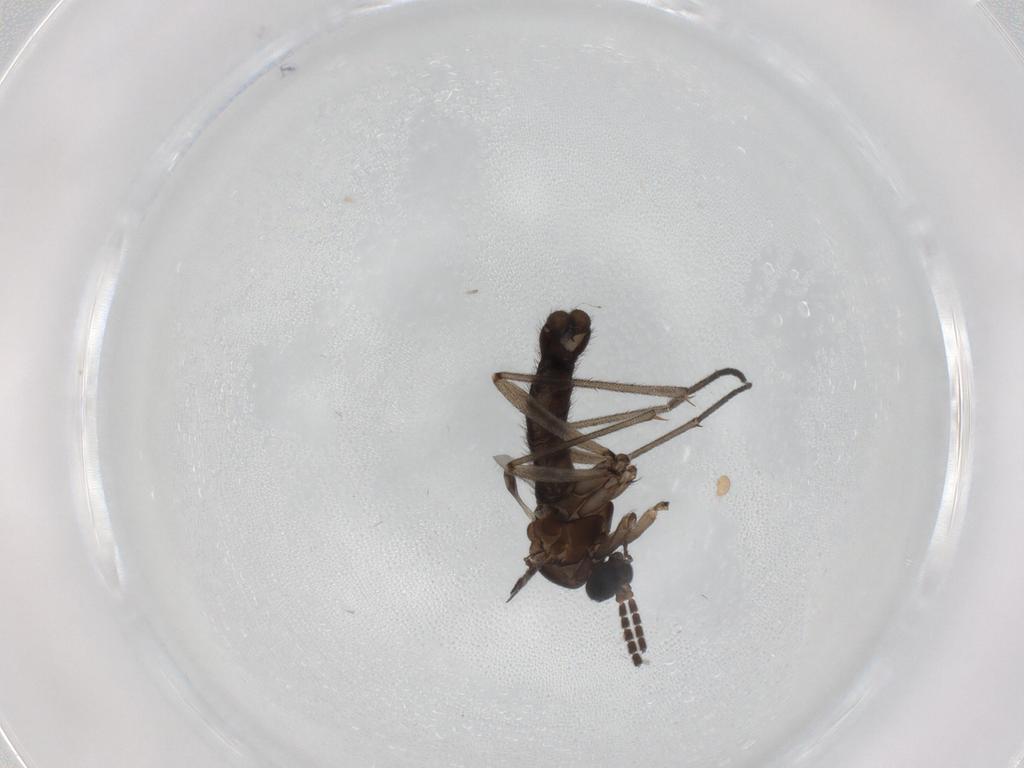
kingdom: Animalia
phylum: Arthropoda
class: Insecta
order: Diptera
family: Sciaridae
